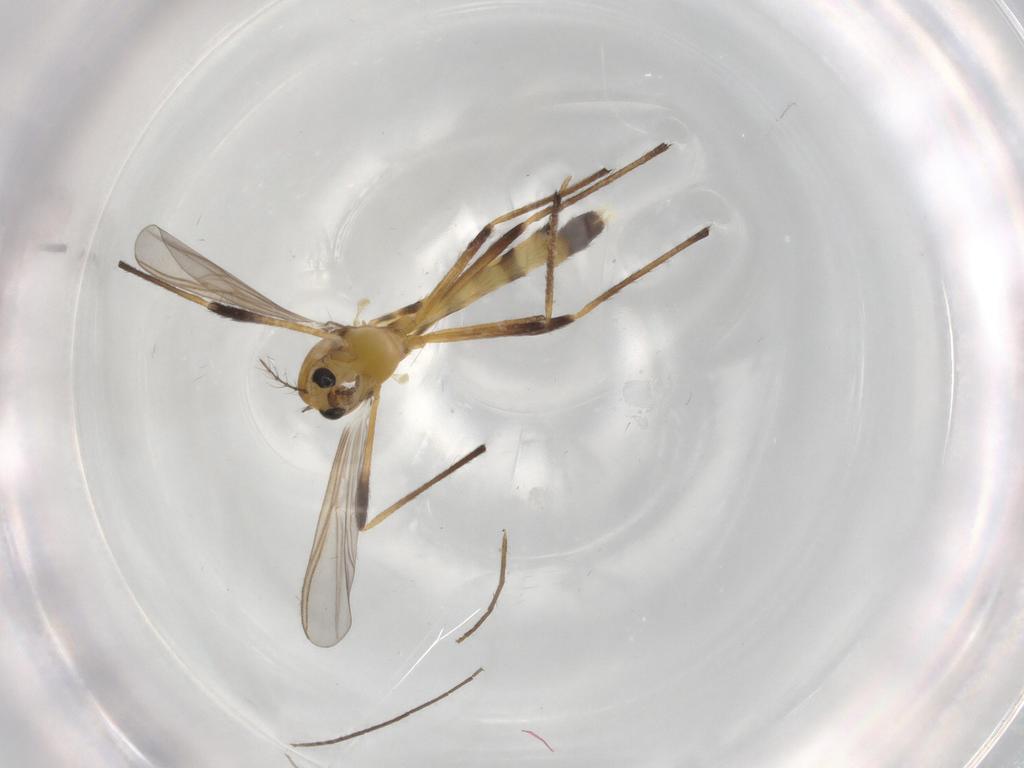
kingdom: Animalia
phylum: Arthropoda
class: Insecta
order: Diptera
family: Chironomidae
